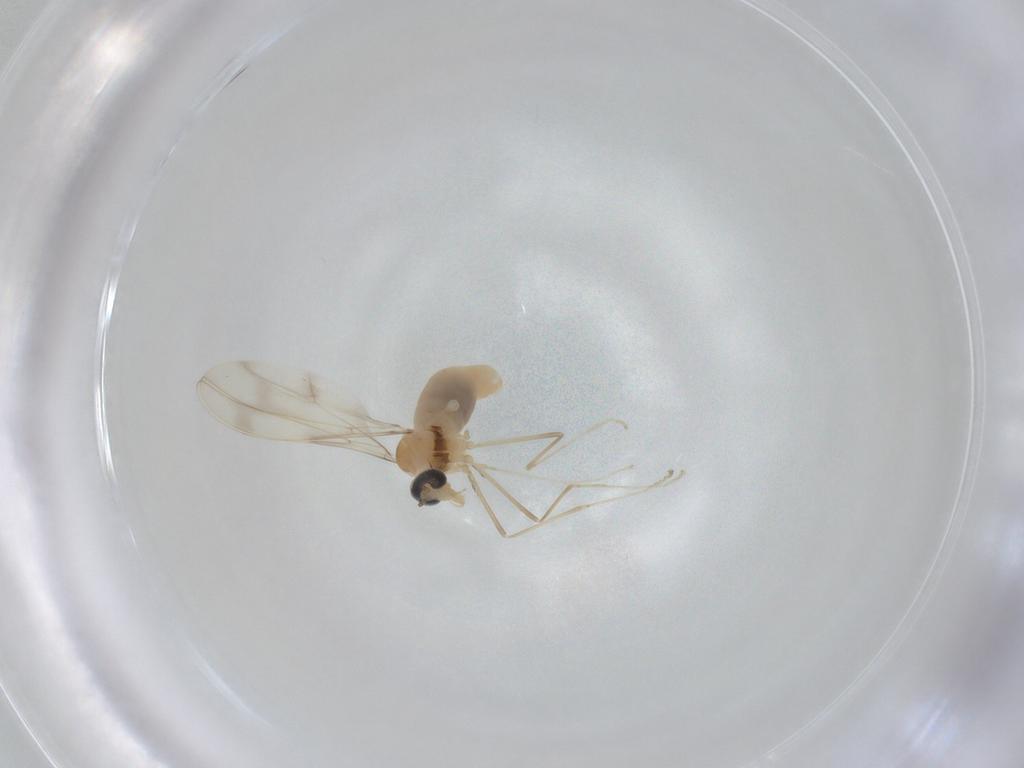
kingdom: Animalia
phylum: Arthropoda
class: Insecta
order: Diptera
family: Cecidomyiidae
